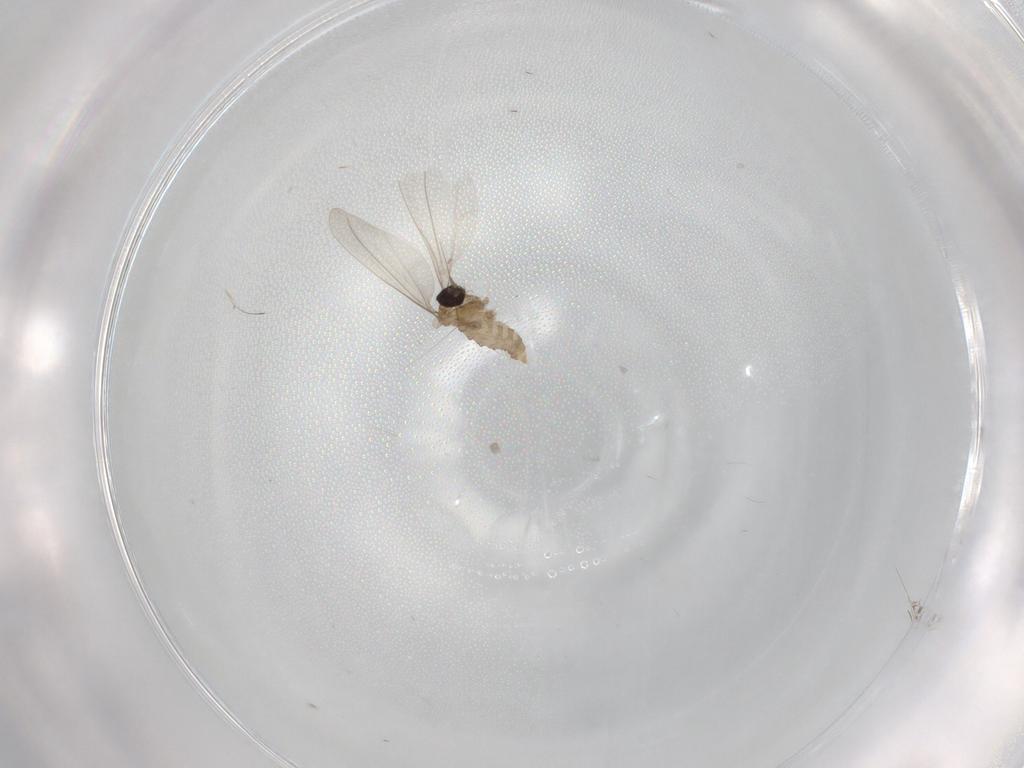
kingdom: Animalia
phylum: Arthropoda
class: Insecta
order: Diptera
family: Cecidomyiidae
